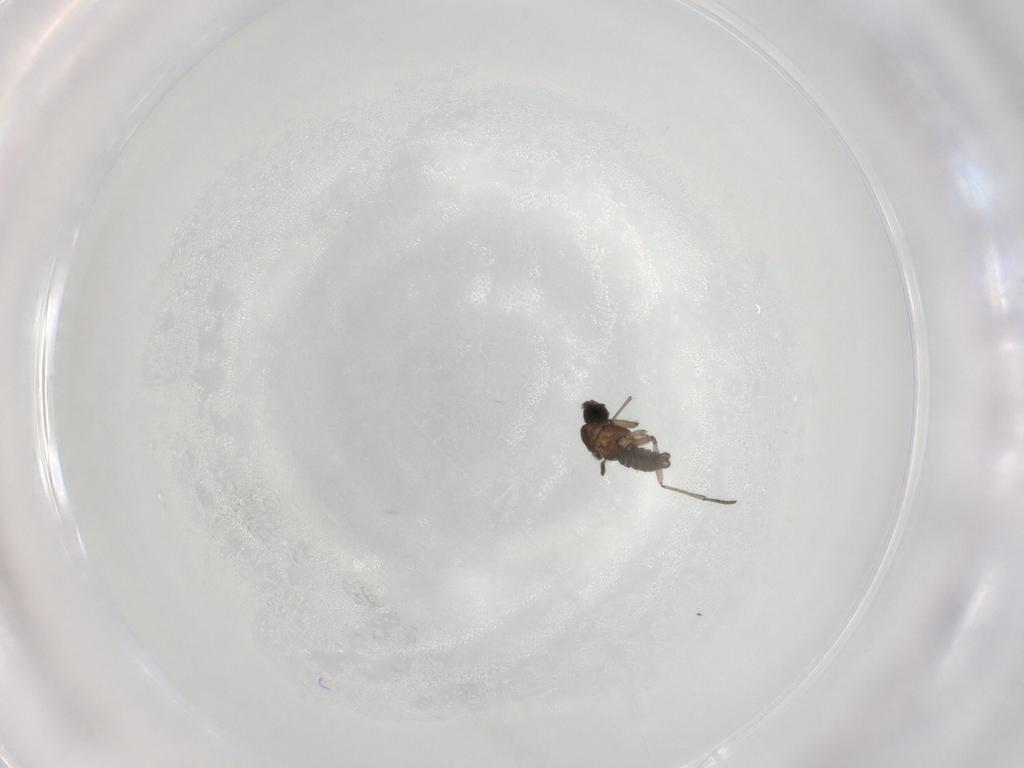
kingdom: Animalia
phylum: Arthropoda
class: Insecta
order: Diptera
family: Sciaridae
